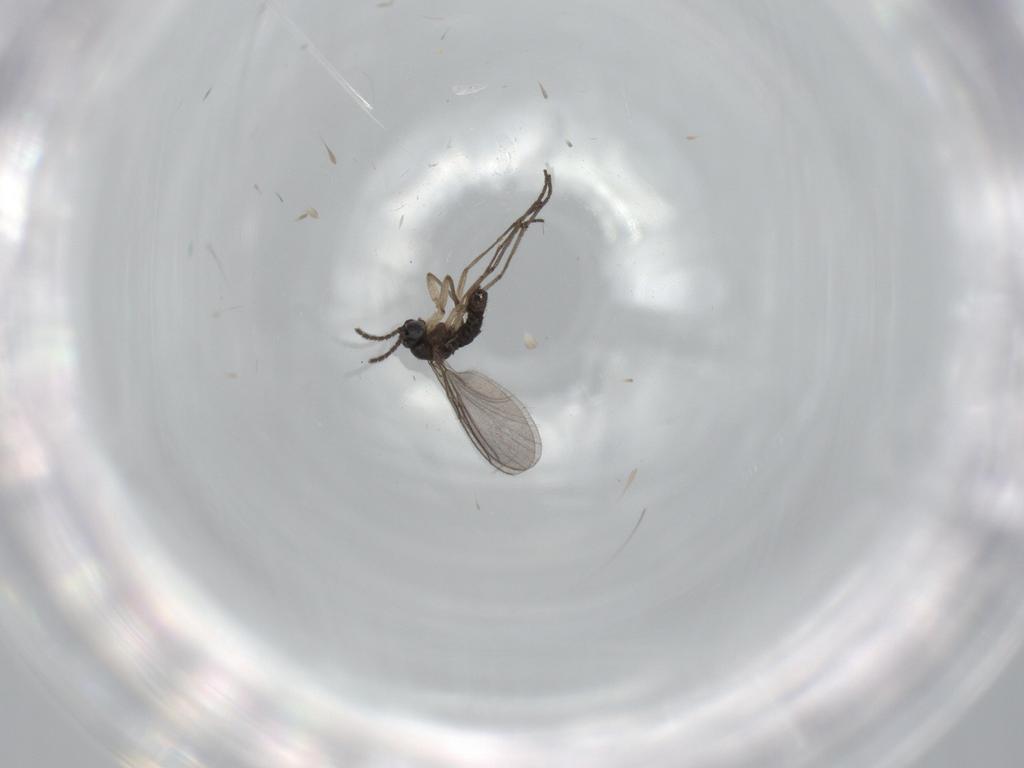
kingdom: Animalia
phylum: Arthropoda
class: Insecta
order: Diptera
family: Sciaridae
